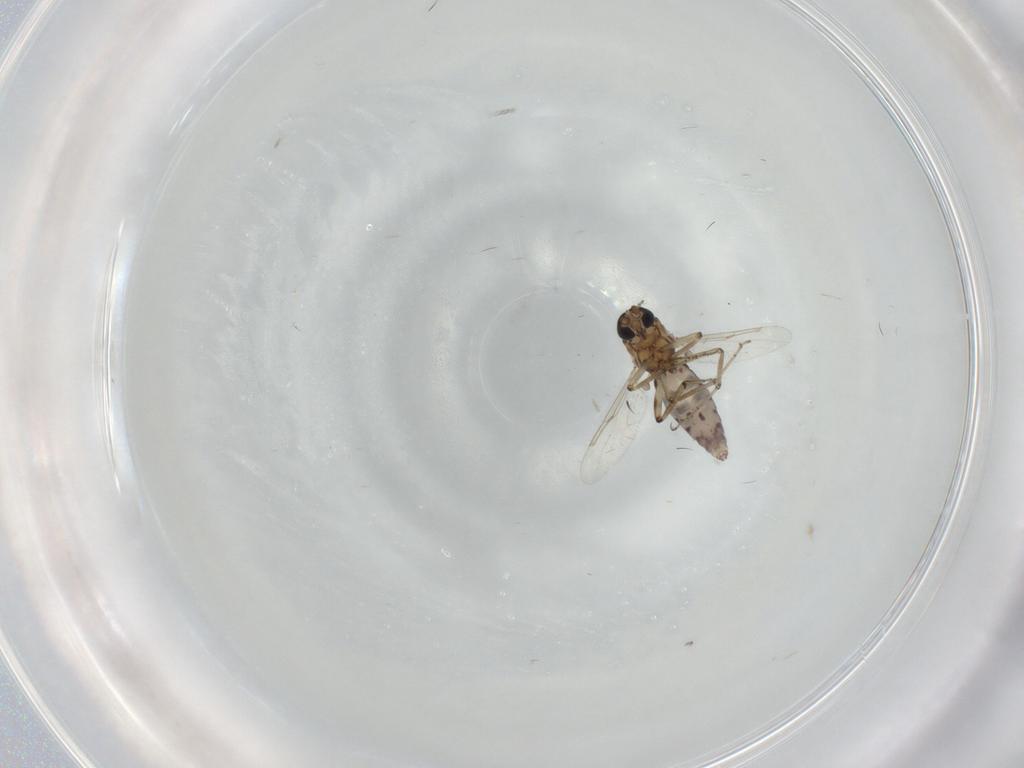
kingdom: Animalia
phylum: Arthropoda
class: Insecta
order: Diptera
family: Ceratopogonidae
